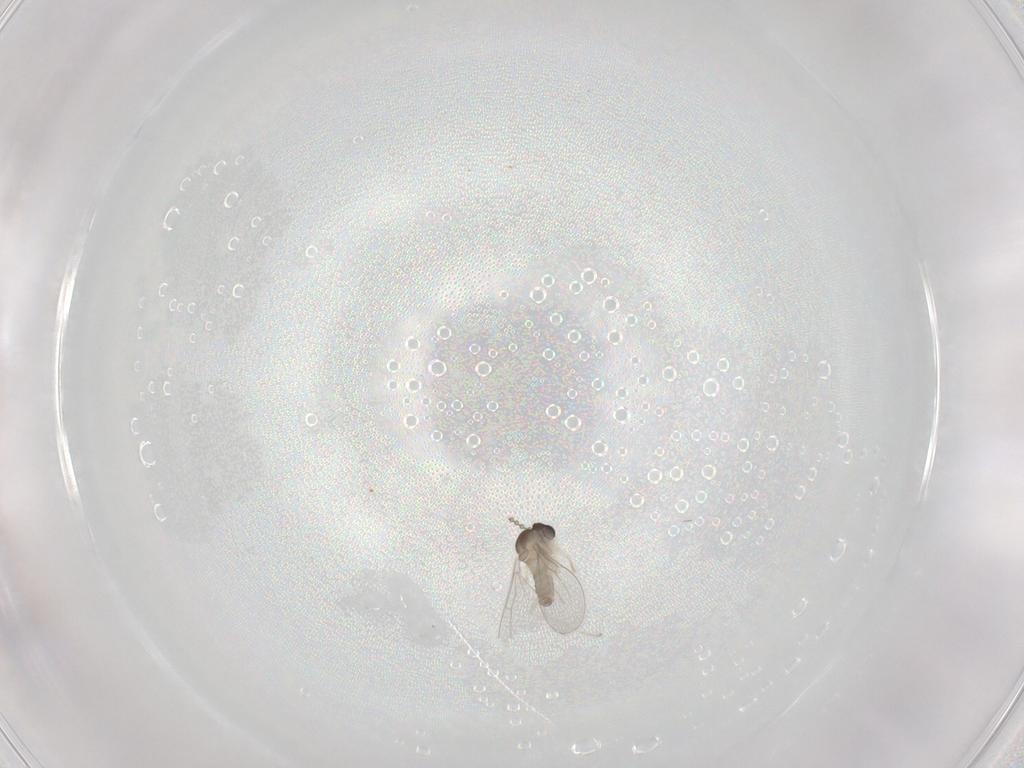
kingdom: Animalia
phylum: Arthropoda
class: Insecta
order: Diptera
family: Cecidomyiidae
